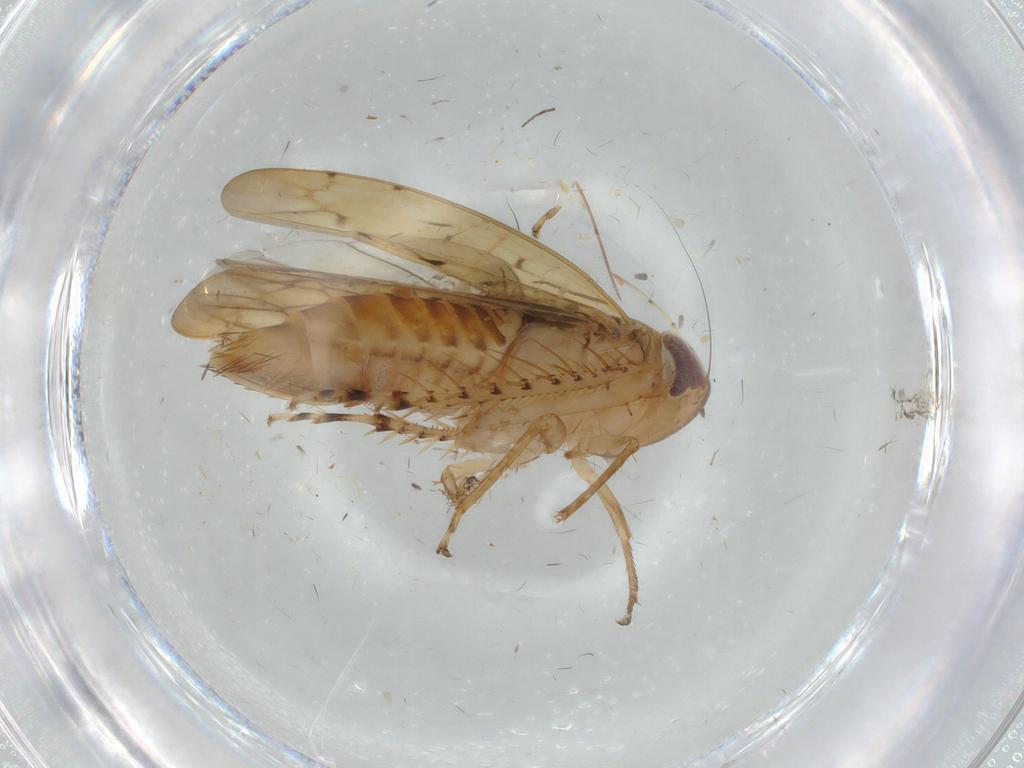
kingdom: Animalia
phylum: Arthropoda
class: Insecta
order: Hemiptera
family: Cicadellidae
